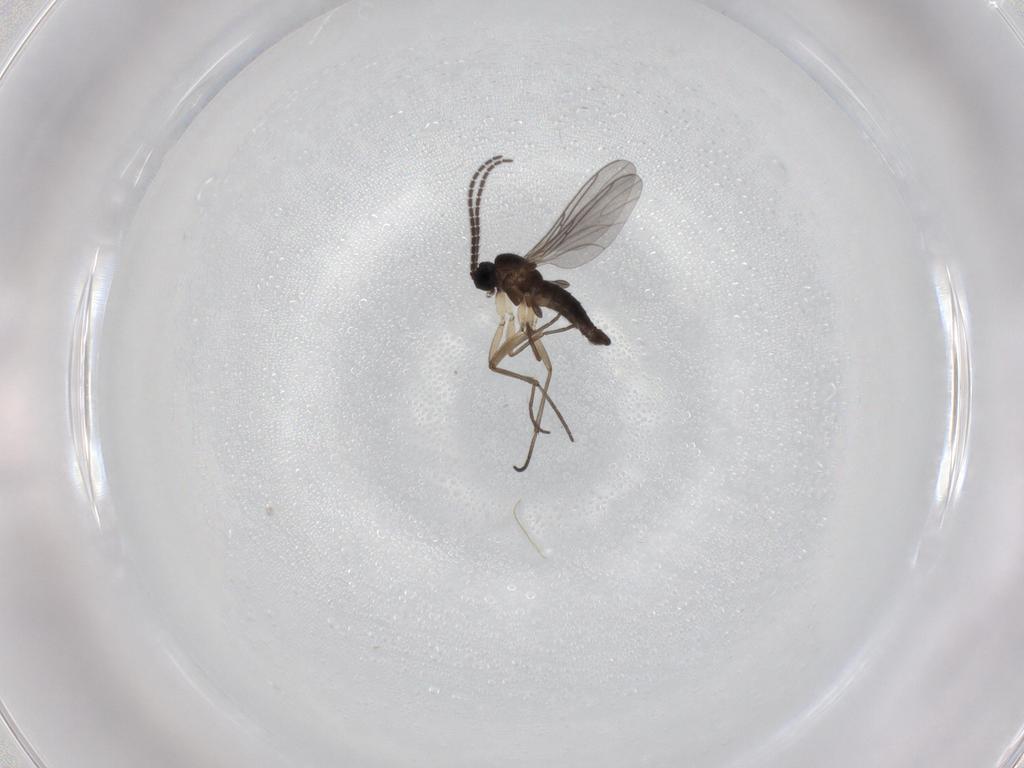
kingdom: Animalia
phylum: Arthropoda
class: Insecta
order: Diptera
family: Sciaridae
